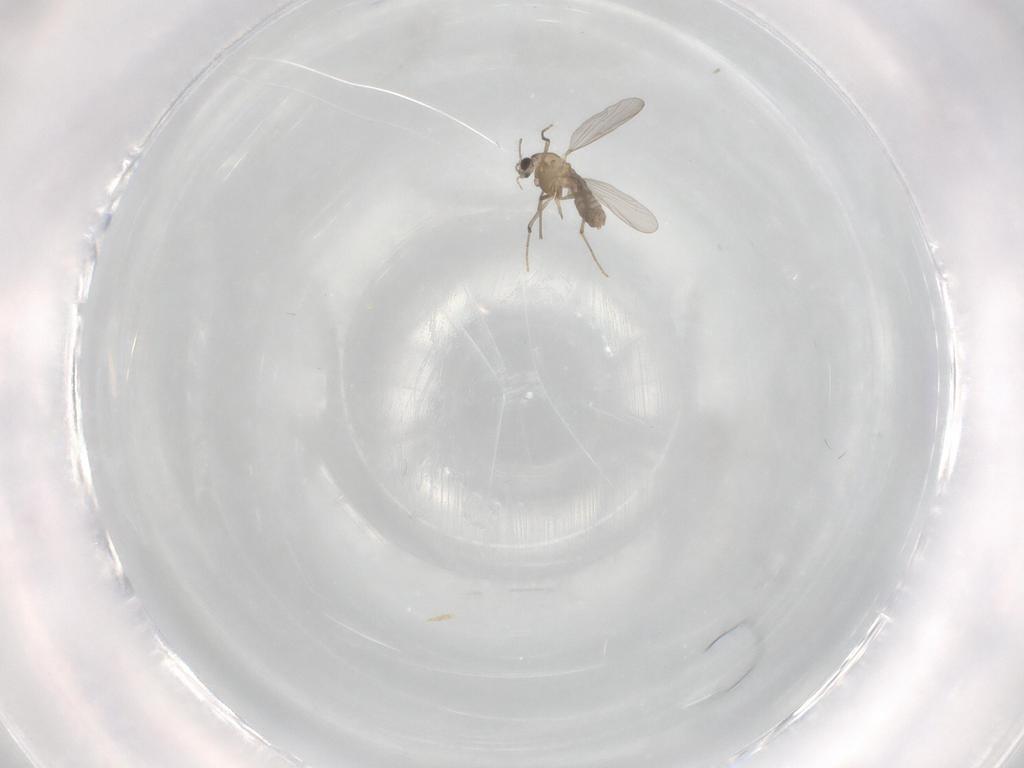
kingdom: Animalia
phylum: Arthropoda
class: Insecta
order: Diptera
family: Chironomidae
